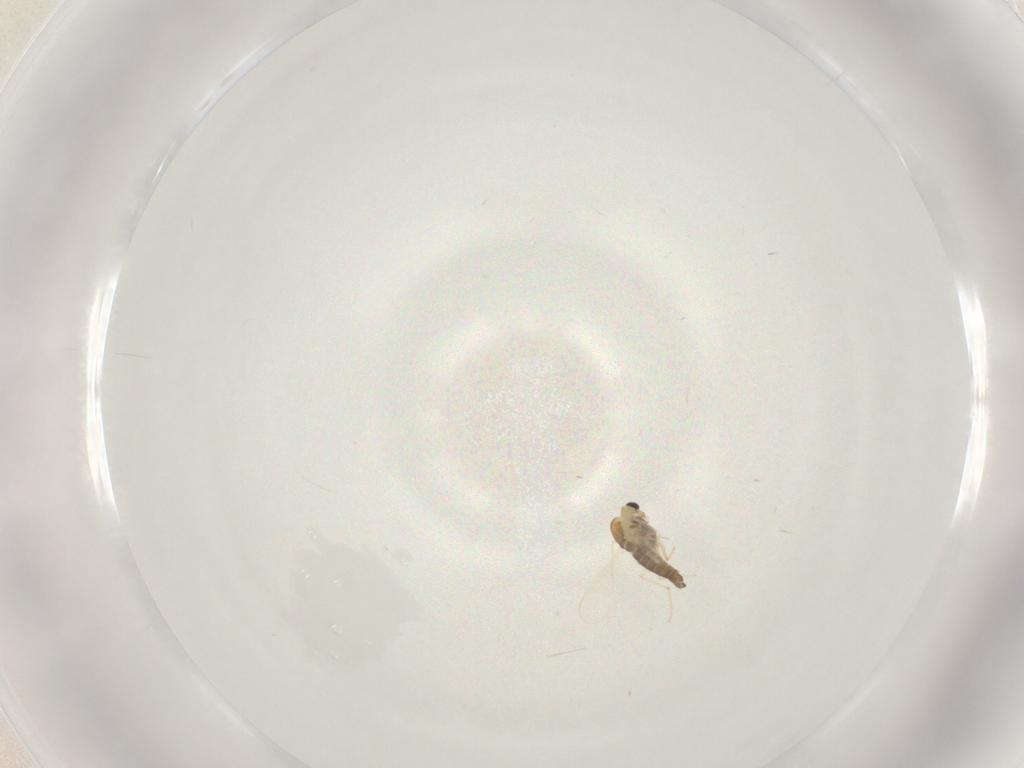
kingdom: Animalia
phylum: Arthropoda
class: Insecta
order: Diptera
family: Chironomidae
